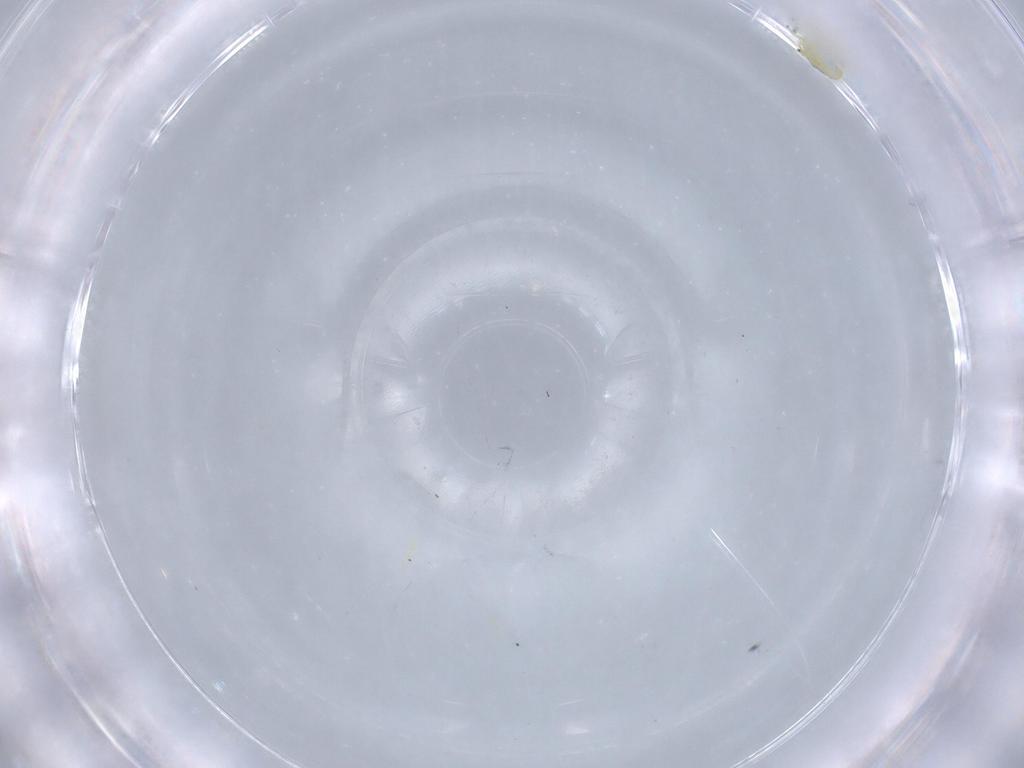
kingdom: Animalia
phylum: Arthropoda
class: Insecta
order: Hemiptera
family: Aleyrodidae
